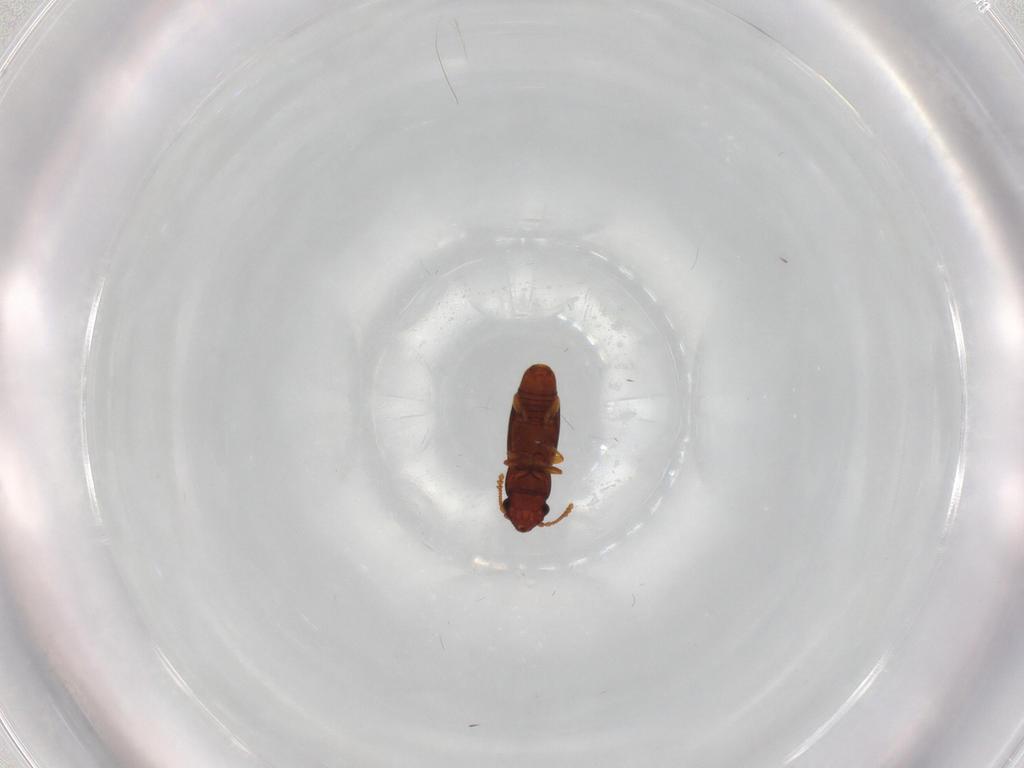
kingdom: Animalia
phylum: Arthropoda
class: Insecta
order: Coleoptera
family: Smicripidae
